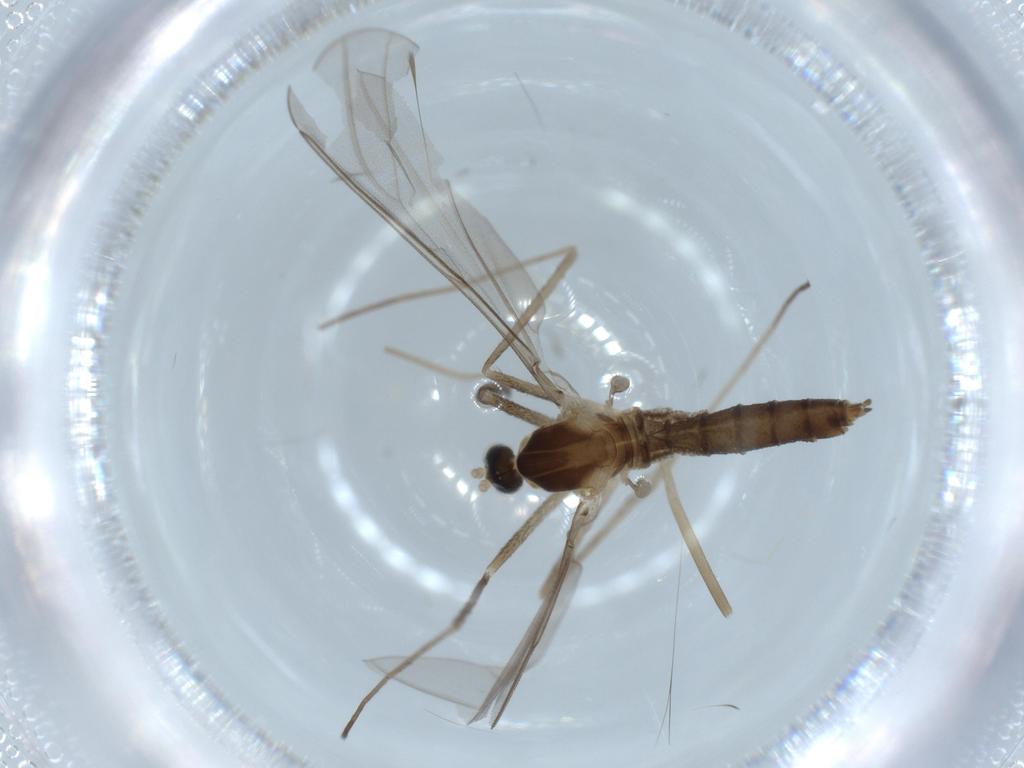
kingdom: Animalia
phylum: Arthropoda
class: Insecta
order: Diptera
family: Cecidomyiidae
